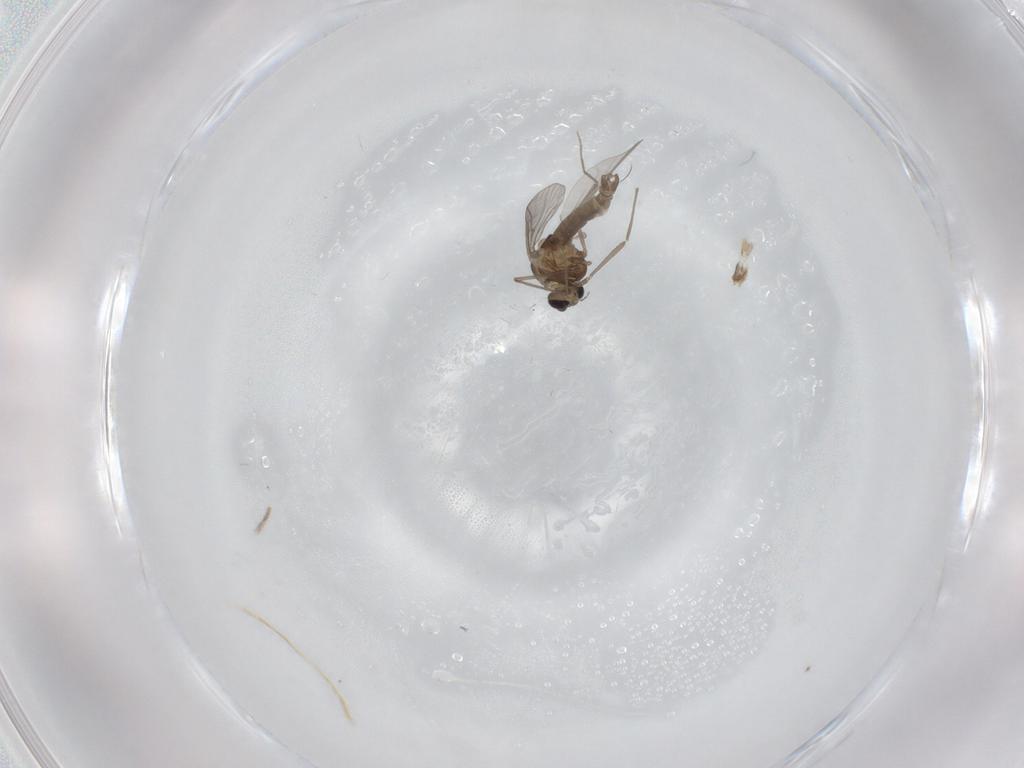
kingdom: Animalia
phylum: Arthropoda
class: Insecta
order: Diptera
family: Chironomidae
